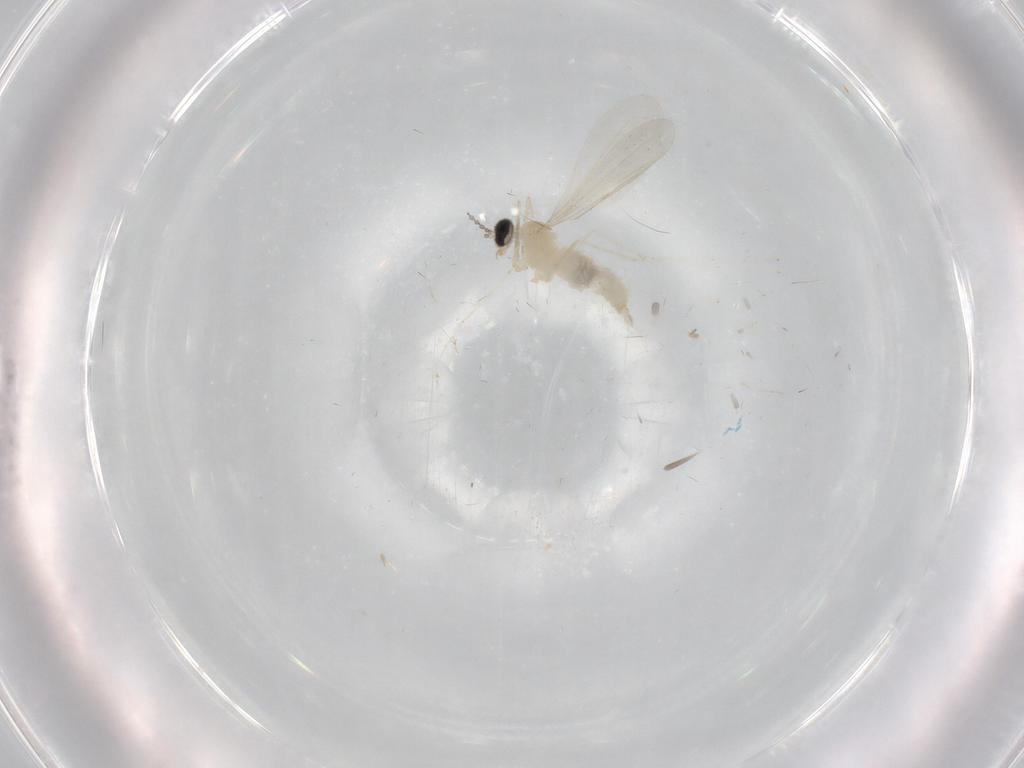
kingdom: Animalia
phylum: Arthropoda
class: Insecta
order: Diptera
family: Cecidomyiidae
